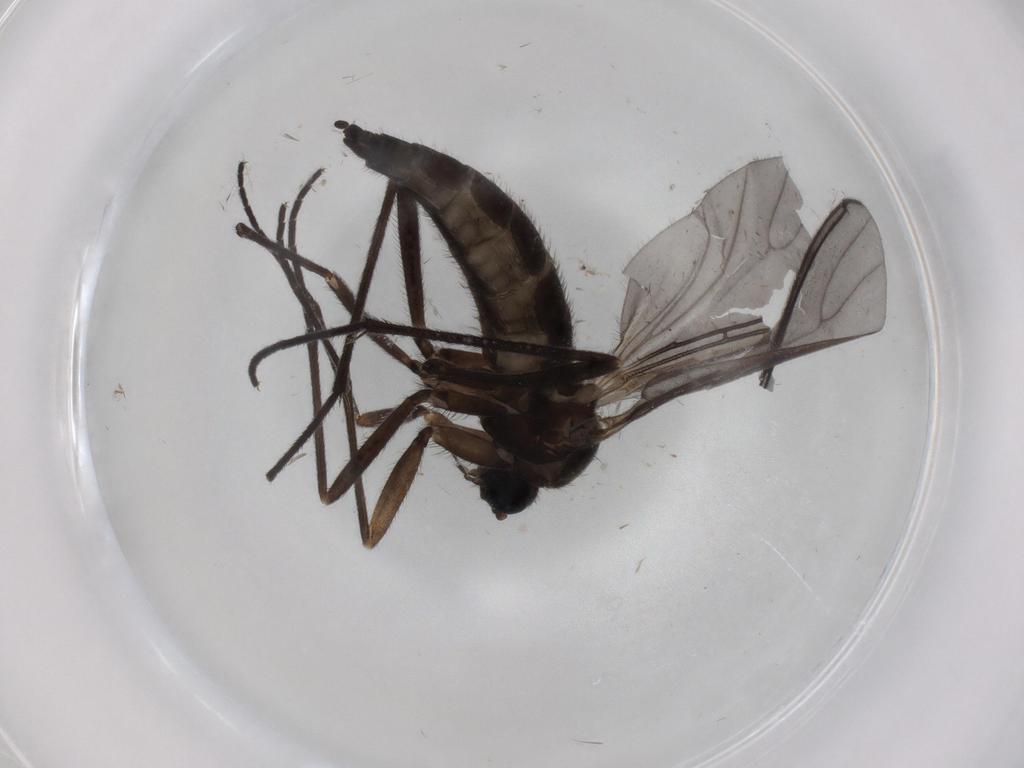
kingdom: Animalia
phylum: Arthropoda
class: Insecta
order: Diptera
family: Sciaridae
